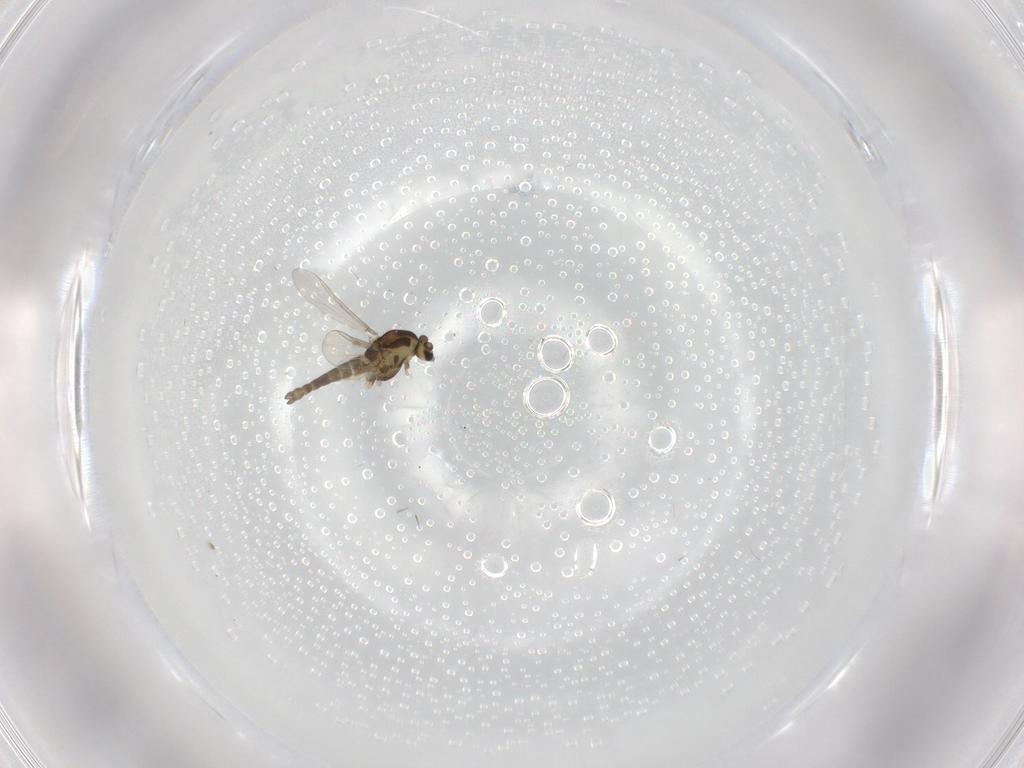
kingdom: Animalia
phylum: Arthropoda
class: Insecta
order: Diptera
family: Chironomidae
